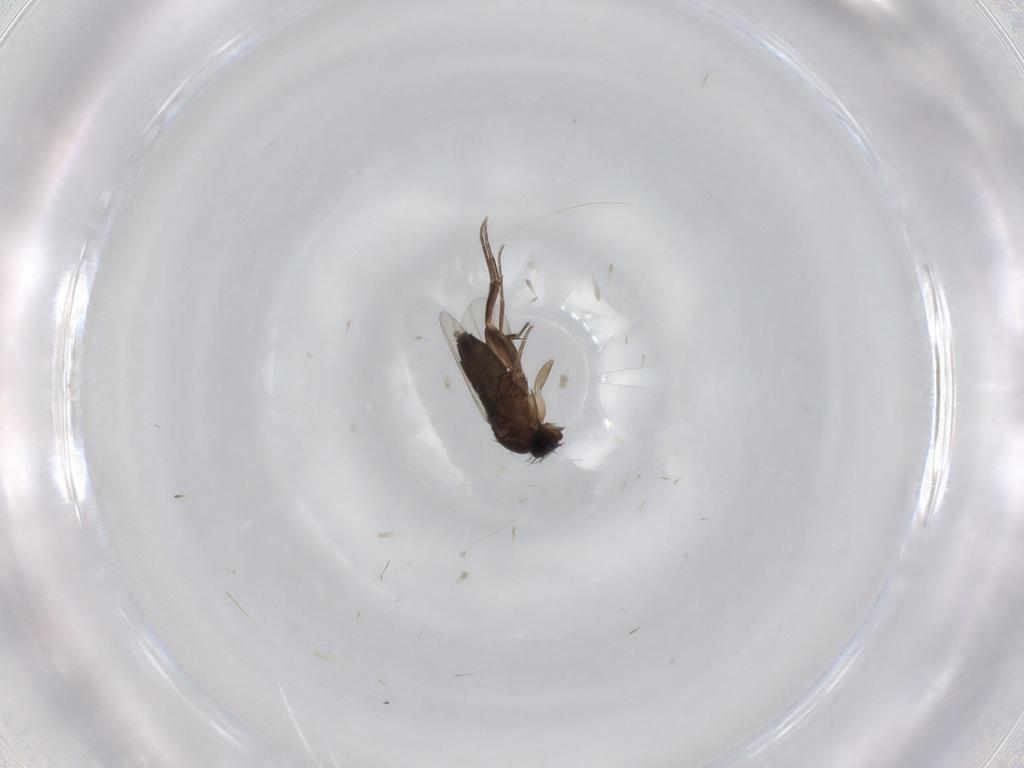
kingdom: Animalia
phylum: Arthropoda
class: Insecta
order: Diptera
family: Phoridae
